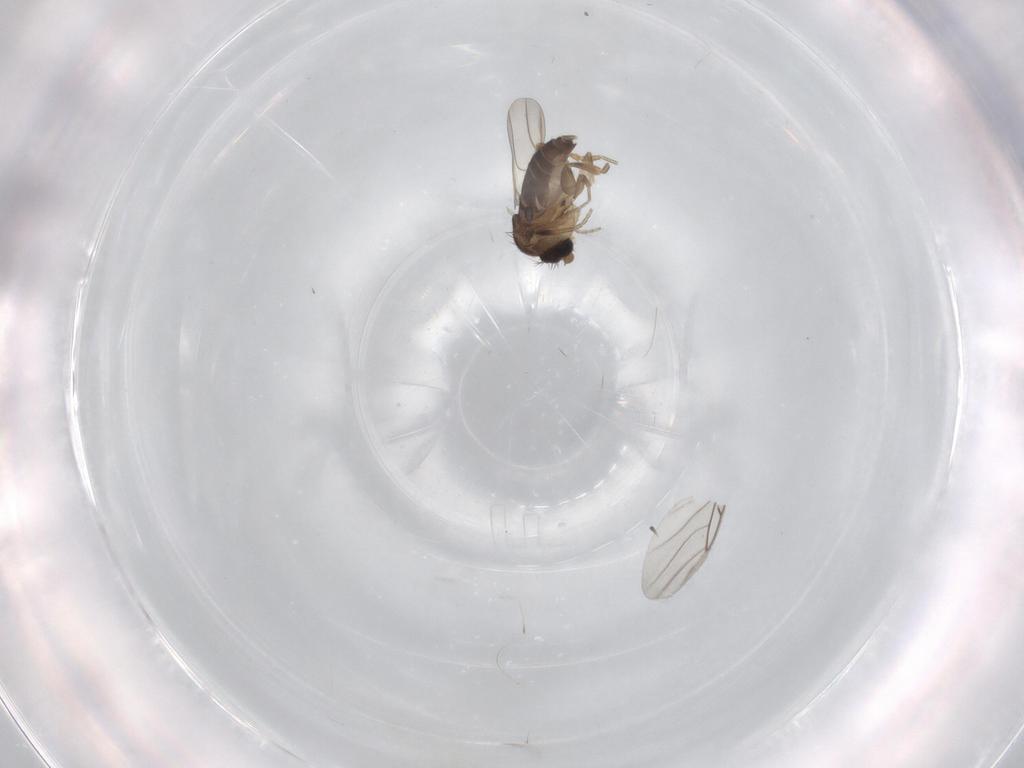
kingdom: Animalia
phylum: Arthropoda
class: Insecta
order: Diptera
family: Phoridae
